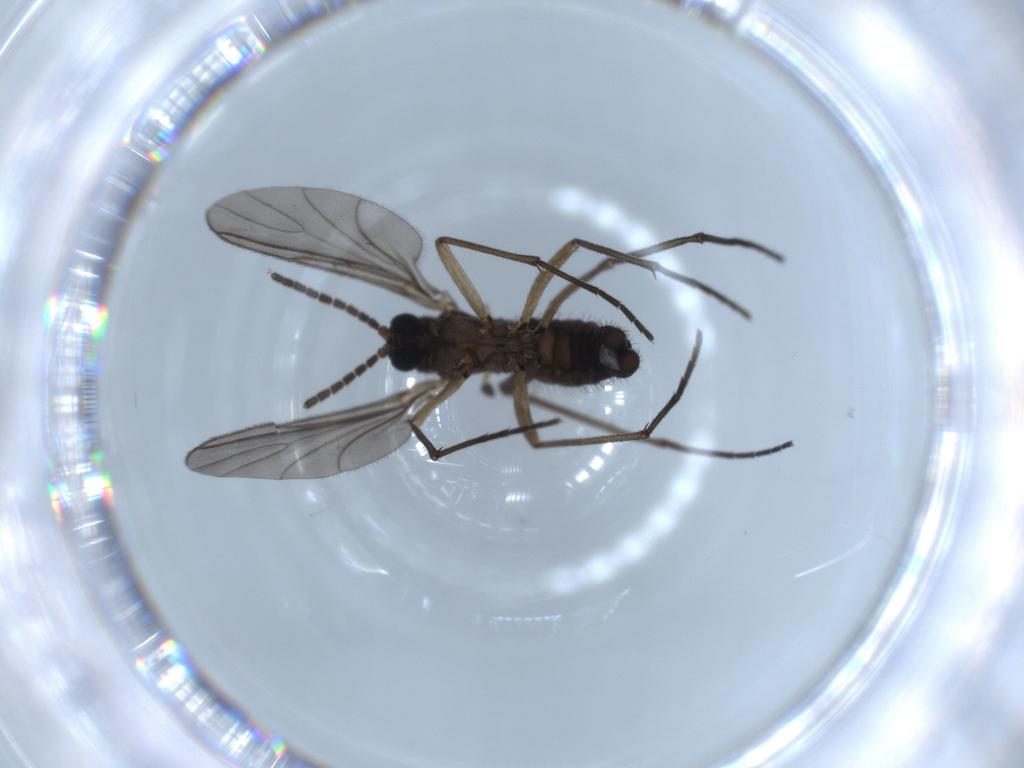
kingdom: Animalia
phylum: Arthropoda
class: Insecta
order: Diptera
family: Sciaridae
